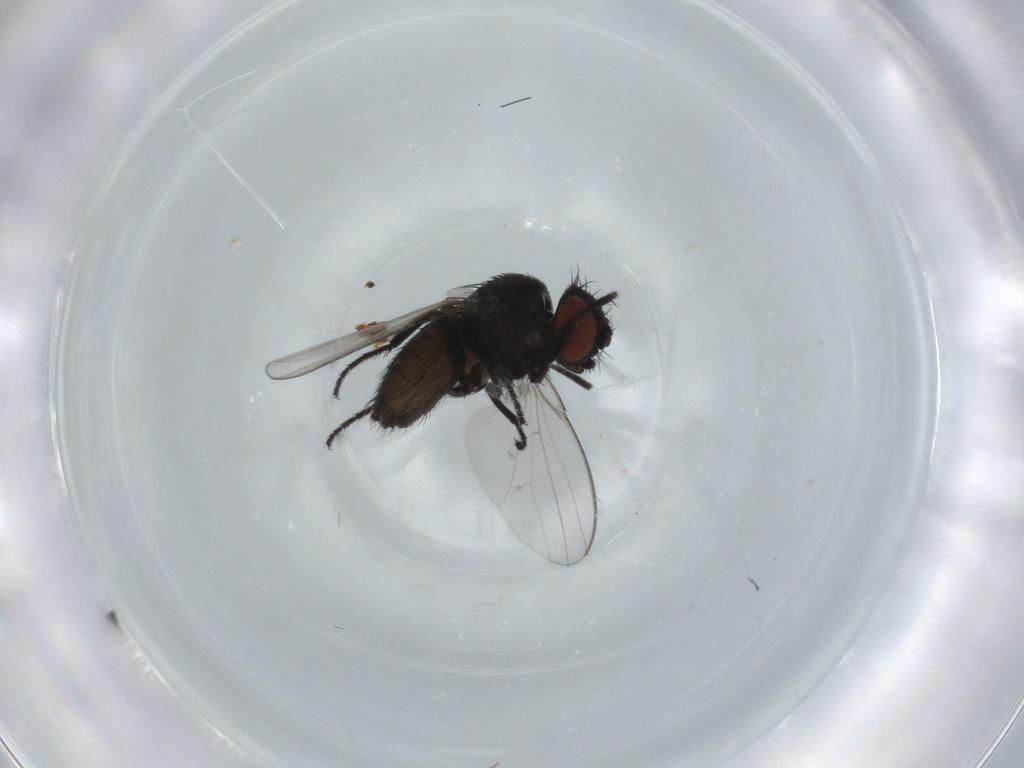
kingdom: Animalia
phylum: Arthropoda
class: Insecta
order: Diptera
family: Milichiidae
